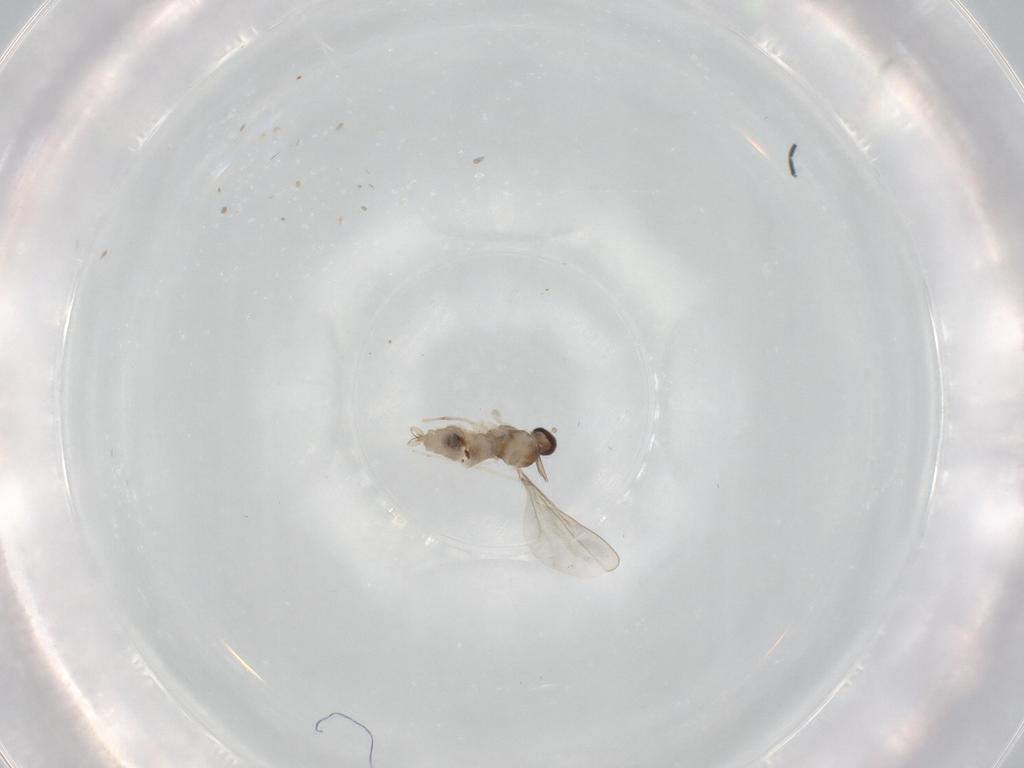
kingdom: Animalia
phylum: Arthropoda
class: Insecta
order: Diptera
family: Cecidomyiidae
